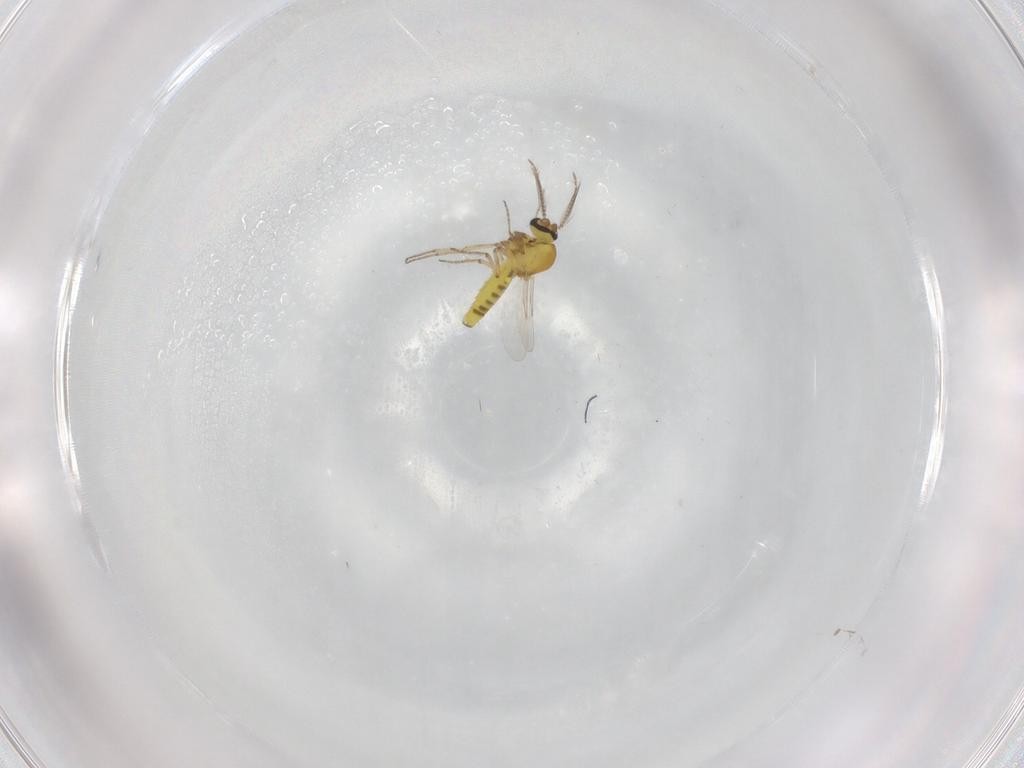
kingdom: Animalia
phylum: Arthropoda
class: Insecta
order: Diptera
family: Ceratopogonidae
